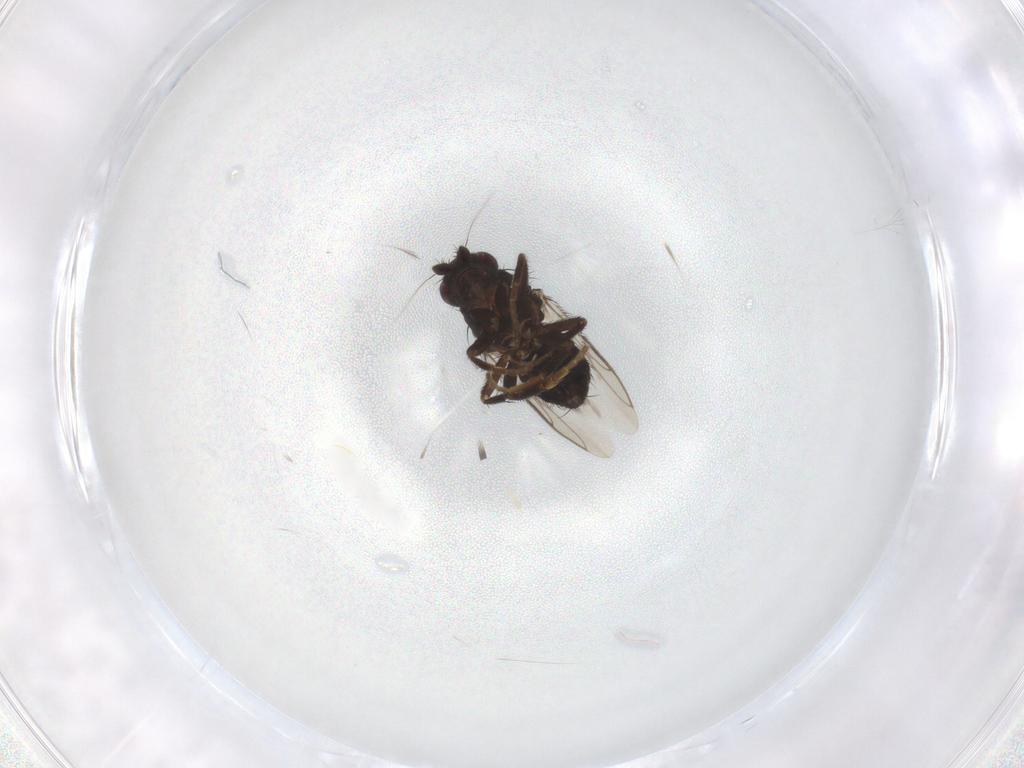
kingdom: Animalia
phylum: Arthropoda
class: Insecta
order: Diptera
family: Sphaeroceridae
